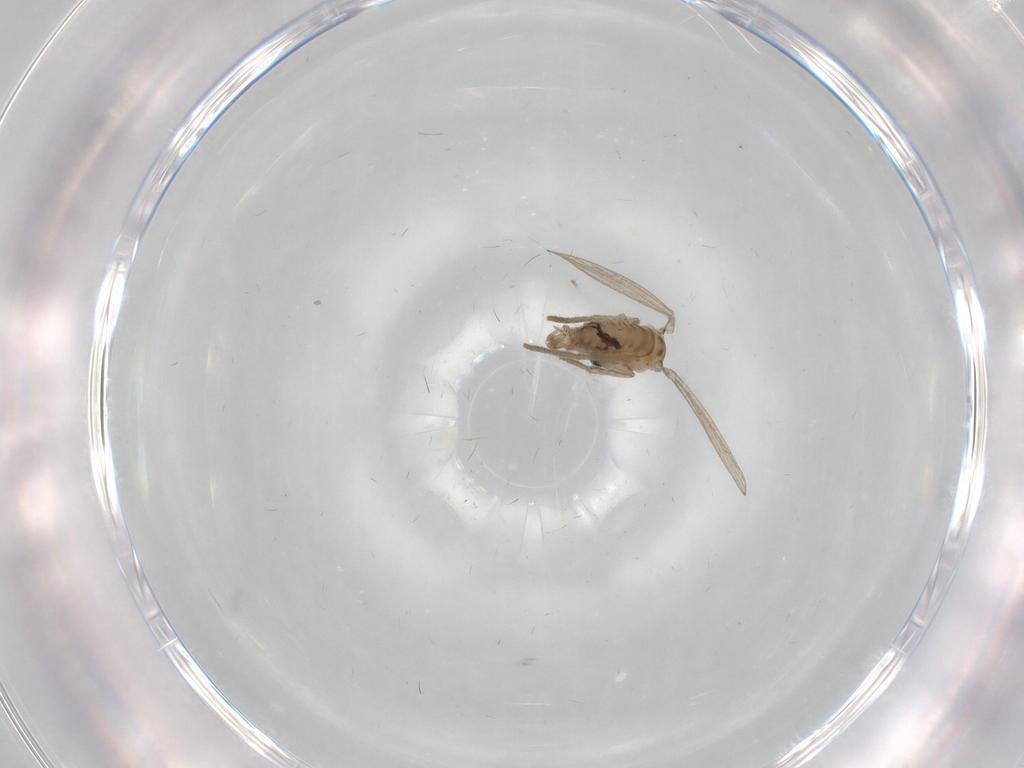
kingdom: Animalia
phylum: Arthropoda
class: Insecta
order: Diptera
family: Psychodidae
